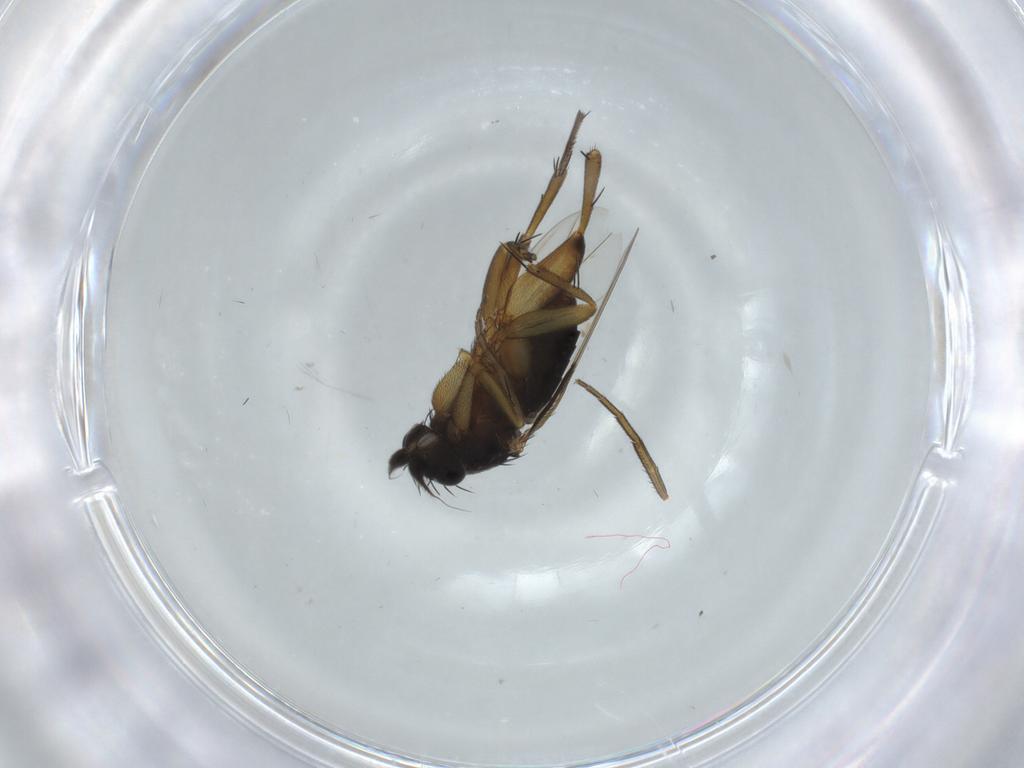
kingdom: Animalia
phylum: Arthropoda
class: Insecta
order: Diptera
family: Phoridae
